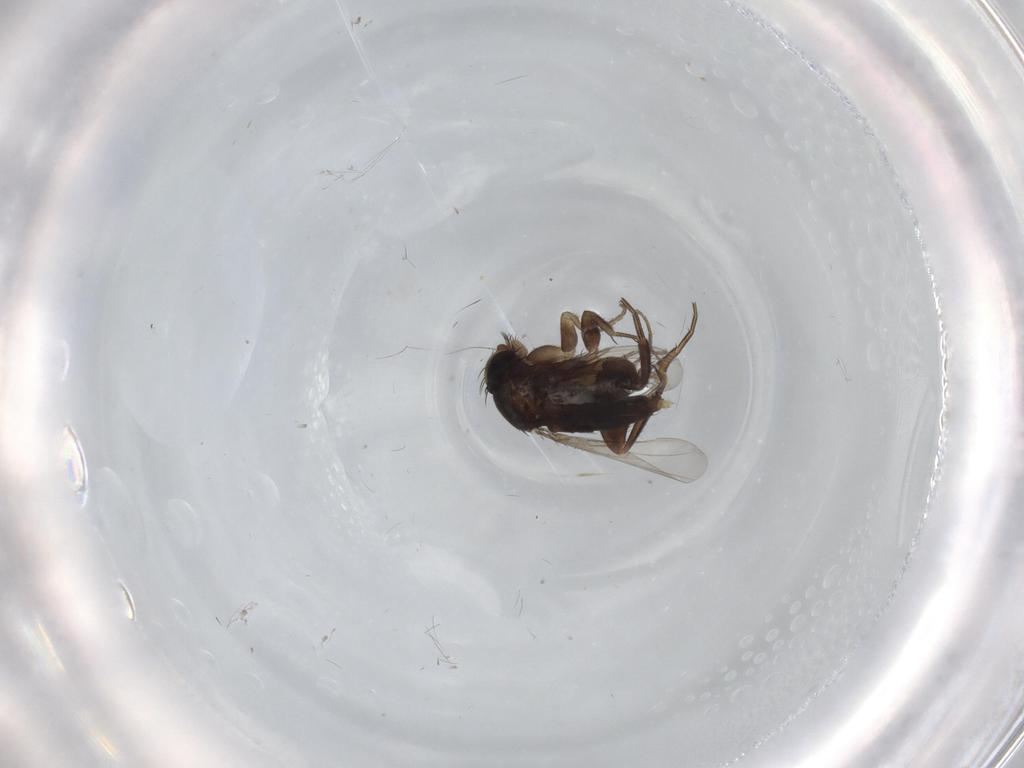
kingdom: Animalia
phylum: Arthropoda
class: Insecta
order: Diptera
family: Phoridae
